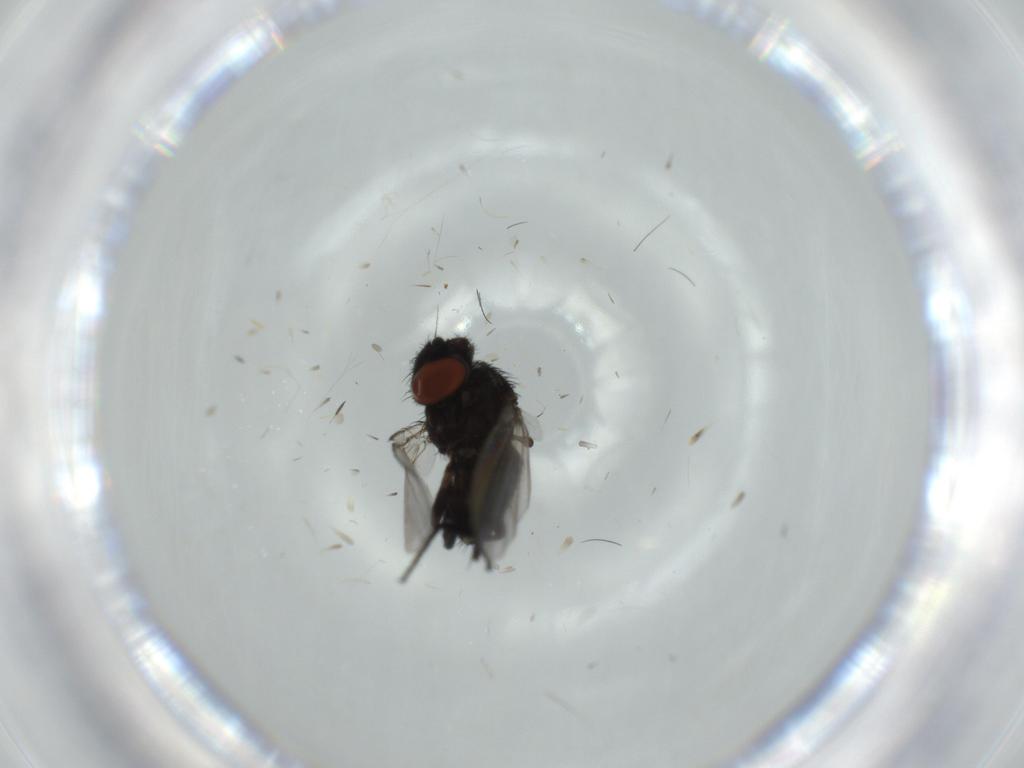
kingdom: Animalia
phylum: Arthropoda
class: Insecta
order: Diptera
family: Milichiidae
